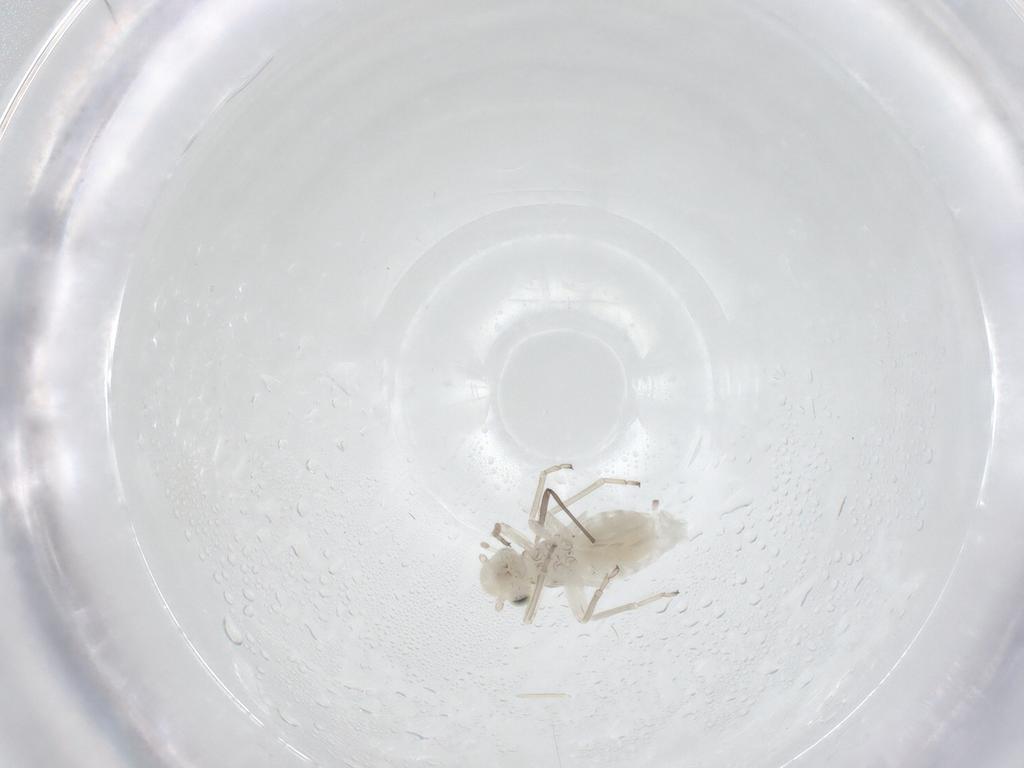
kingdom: Animalia
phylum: Arthropoda
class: Insecta
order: Psocodea
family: Caeciliusidae
